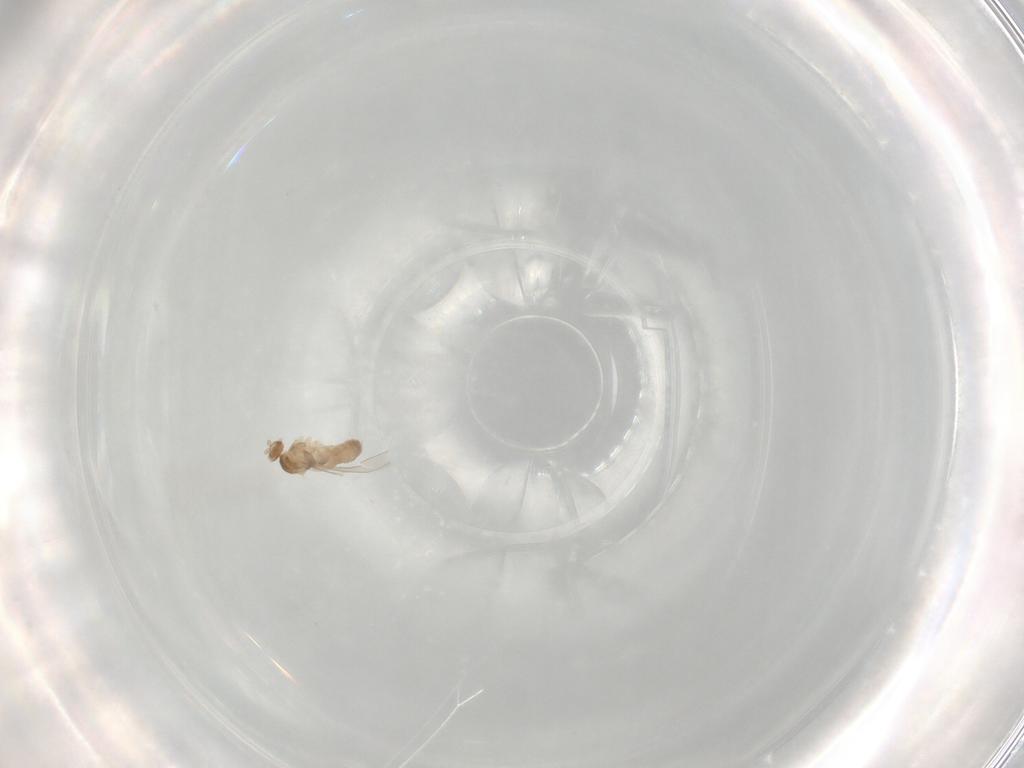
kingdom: Animalia
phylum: Arthropoda
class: Insecta
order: Diptera
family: Cecidomyiidae
